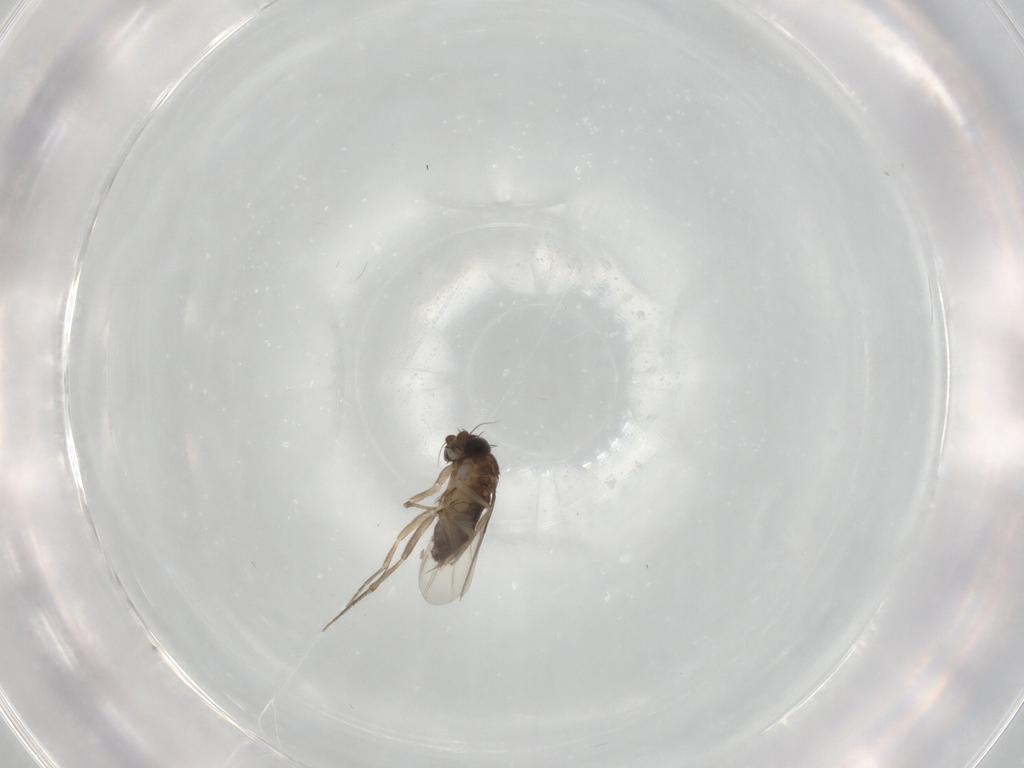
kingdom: Animalia
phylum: Arthropoda
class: Insecta
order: Diptera
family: Phoridae
